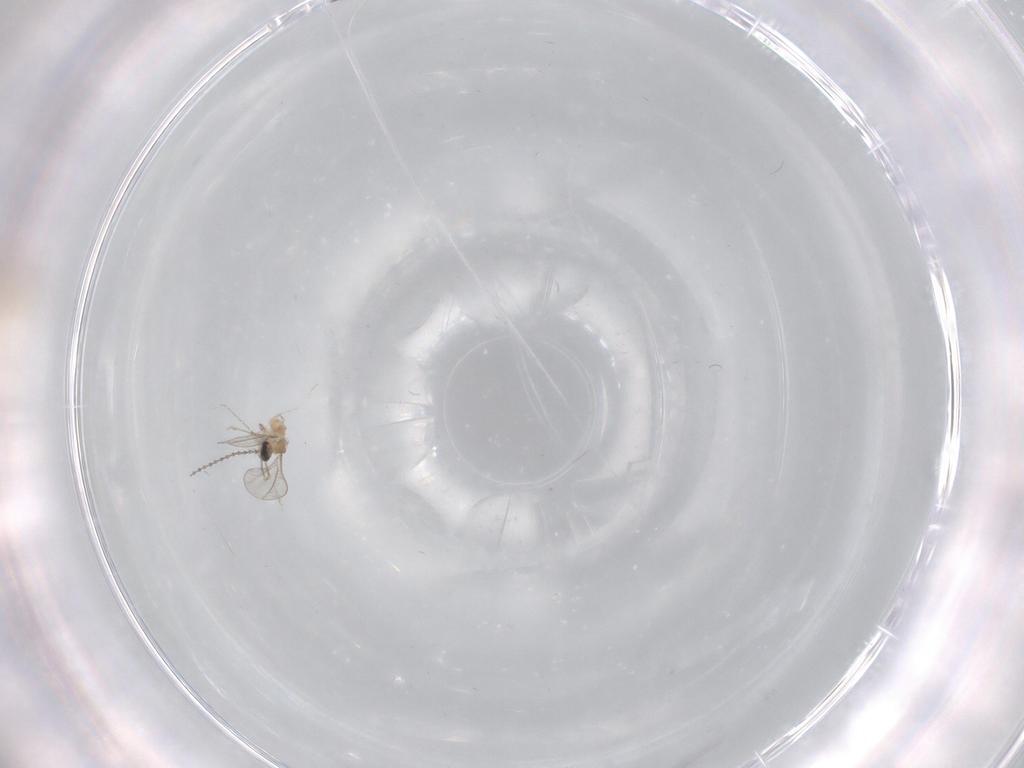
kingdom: Animalia
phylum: Arthropoda
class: Insecta
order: Diptera
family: Cecidomyiidae
